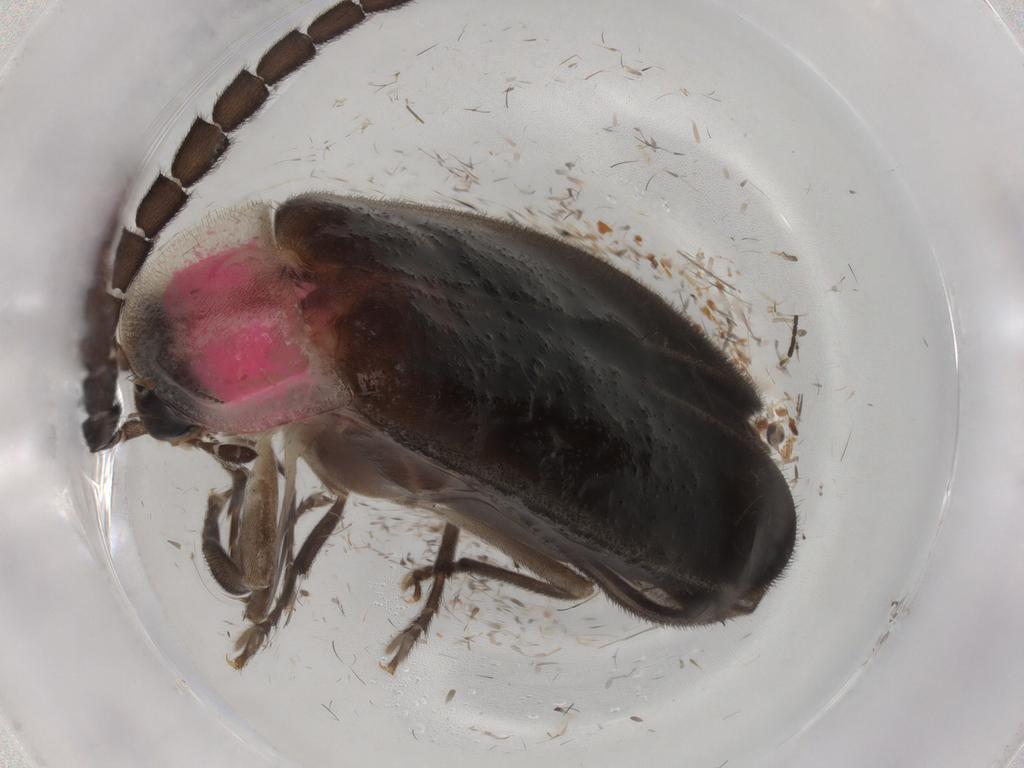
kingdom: Animalia
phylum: Arthropoda
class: Insecta
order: Coleoptera
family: Lampyridae
